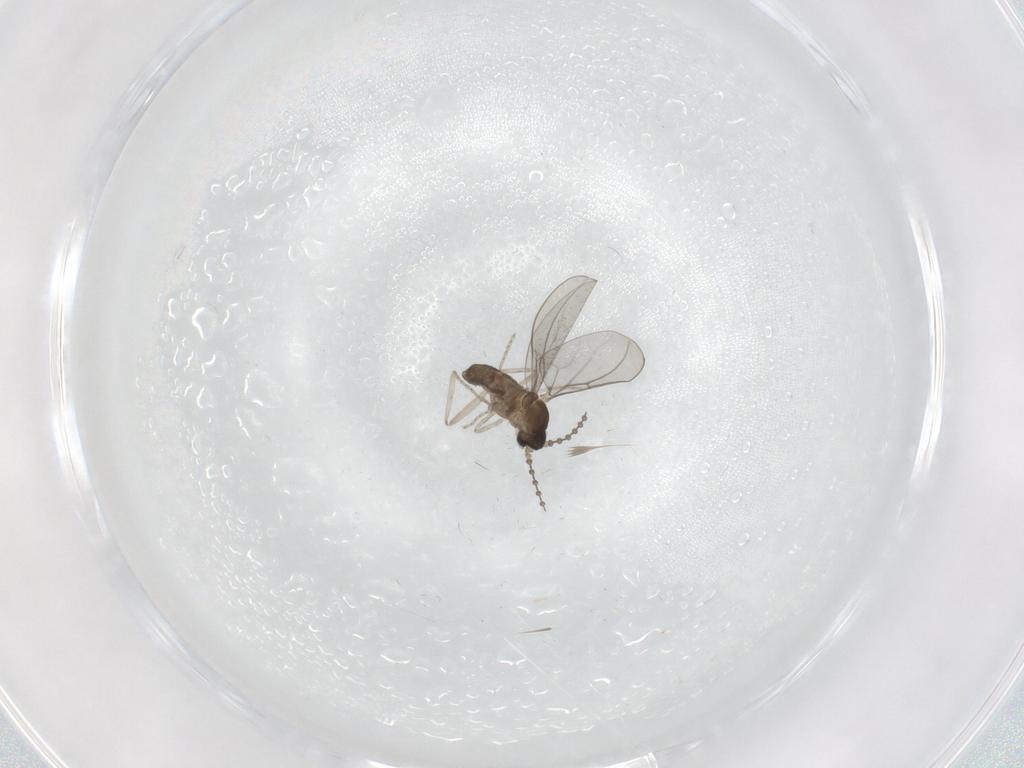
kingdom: Animalia
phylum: Arthropoda
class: Insecta
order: Diptera
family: Cecidomyiidae
